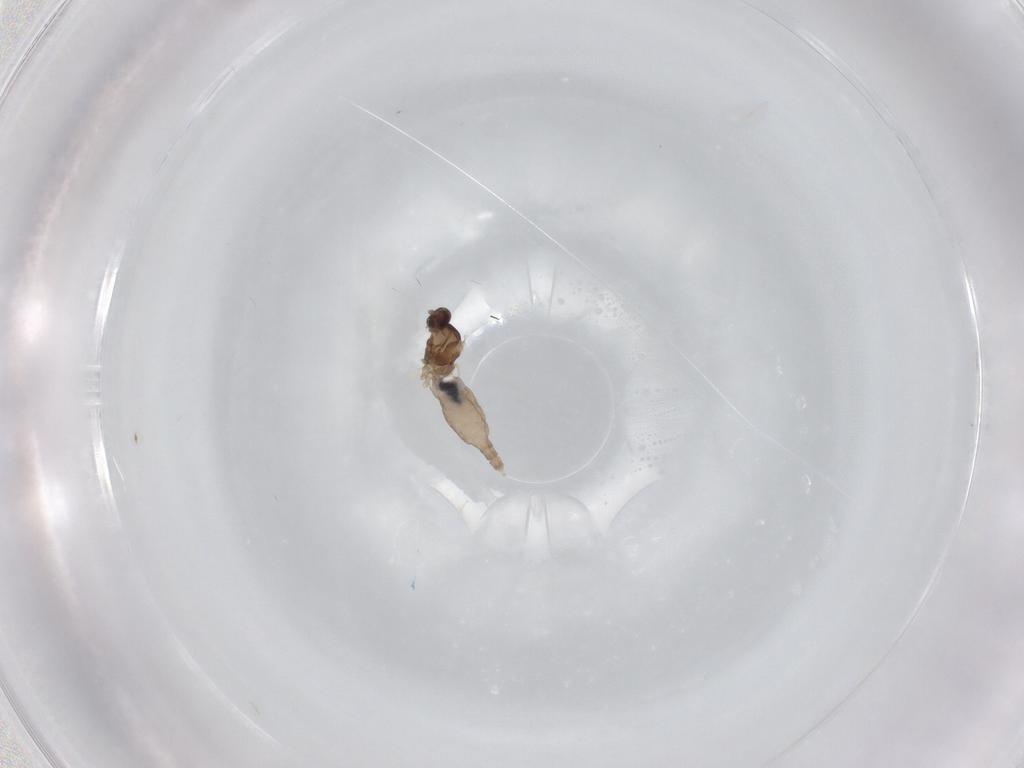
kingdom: Animalia
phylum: Arthropoda
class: Insecta
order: Diptera
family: Cecidomyiidae
